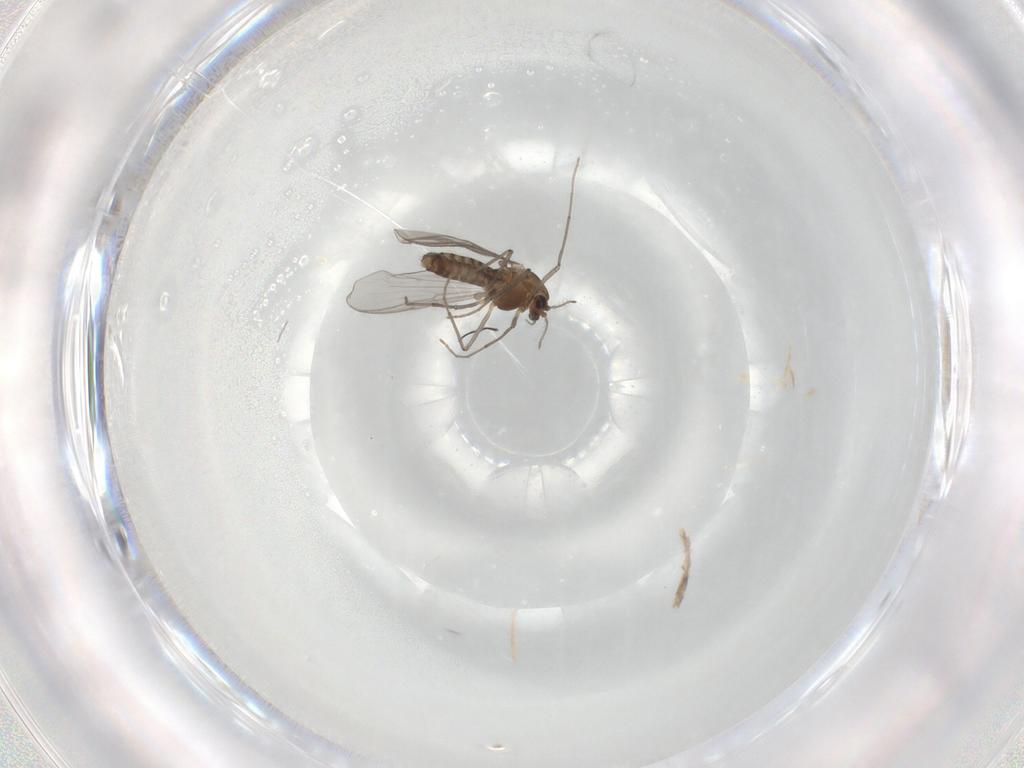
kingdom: Animalia
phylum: Arthropoda
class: Insecta
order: Diptera
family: Chironomidae
